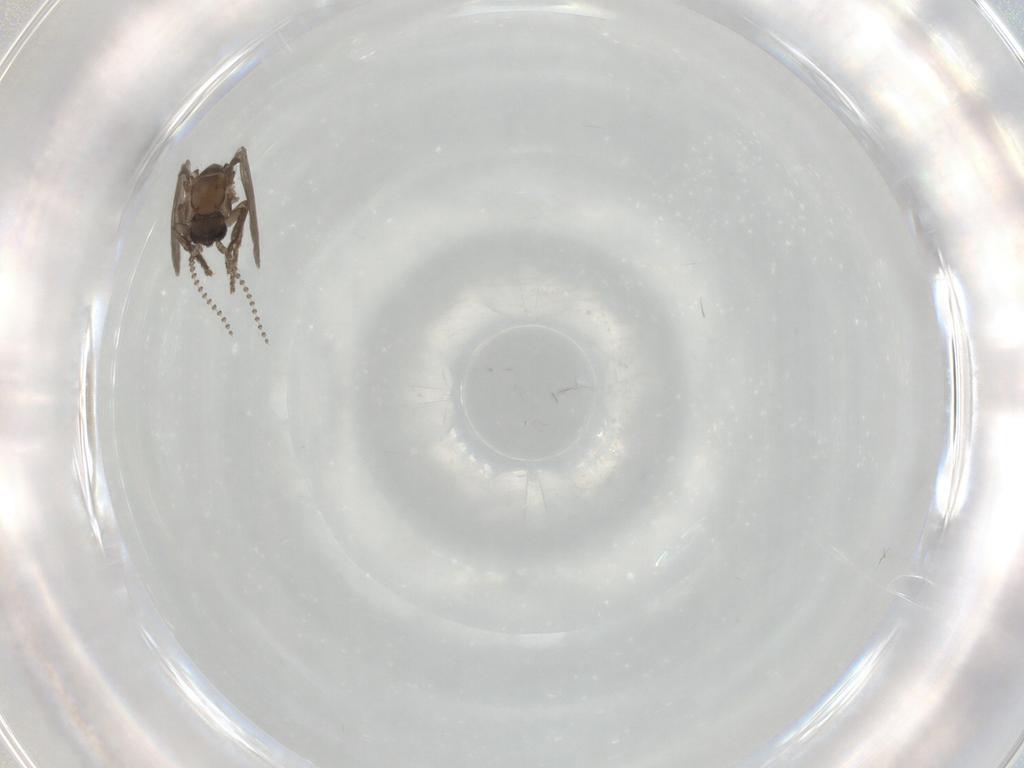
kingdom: Animalia
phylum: Arthropoda
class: Insecta
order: Diptera
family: Psychodidae
